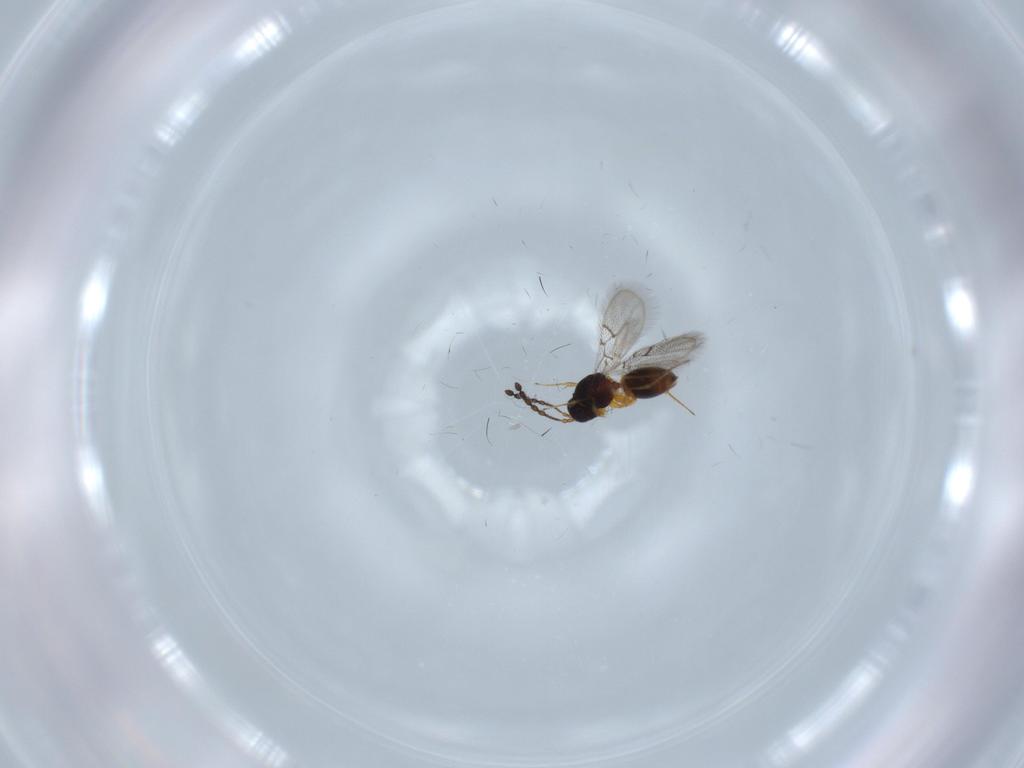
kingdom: Animalia
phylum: Arthropoda
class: Insecta
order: Hymenoptera
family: Figitidae
